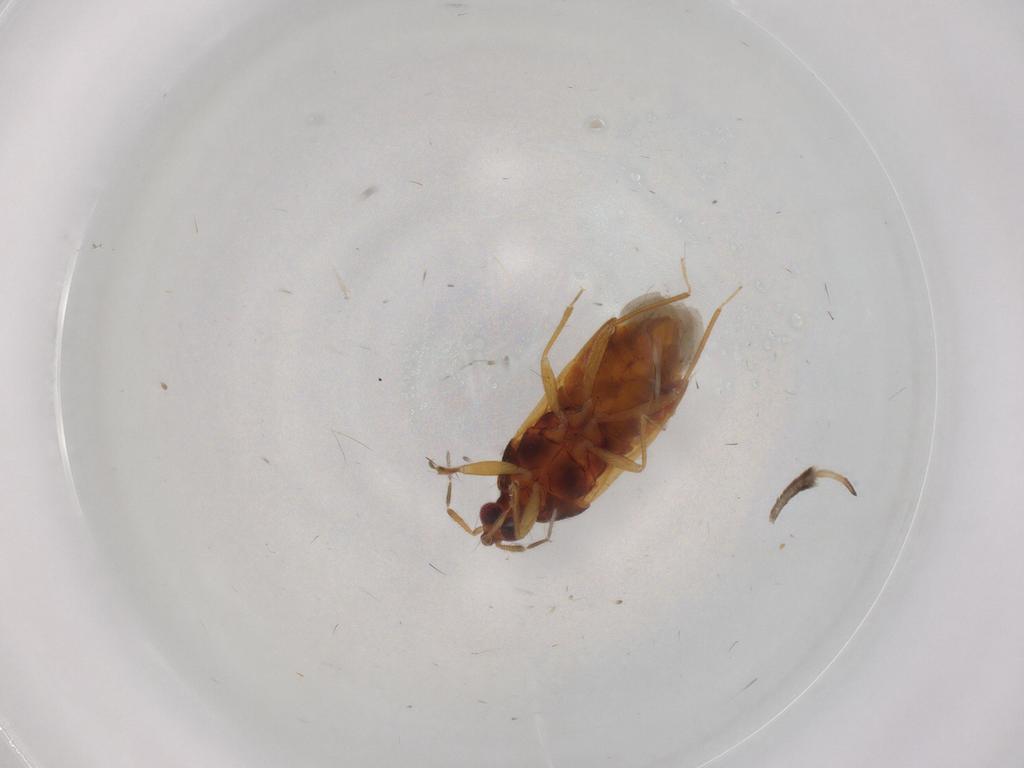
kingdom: Animalia
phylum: Arthropoda
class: Insecta
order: Hemiptera
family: Anthocoridae
